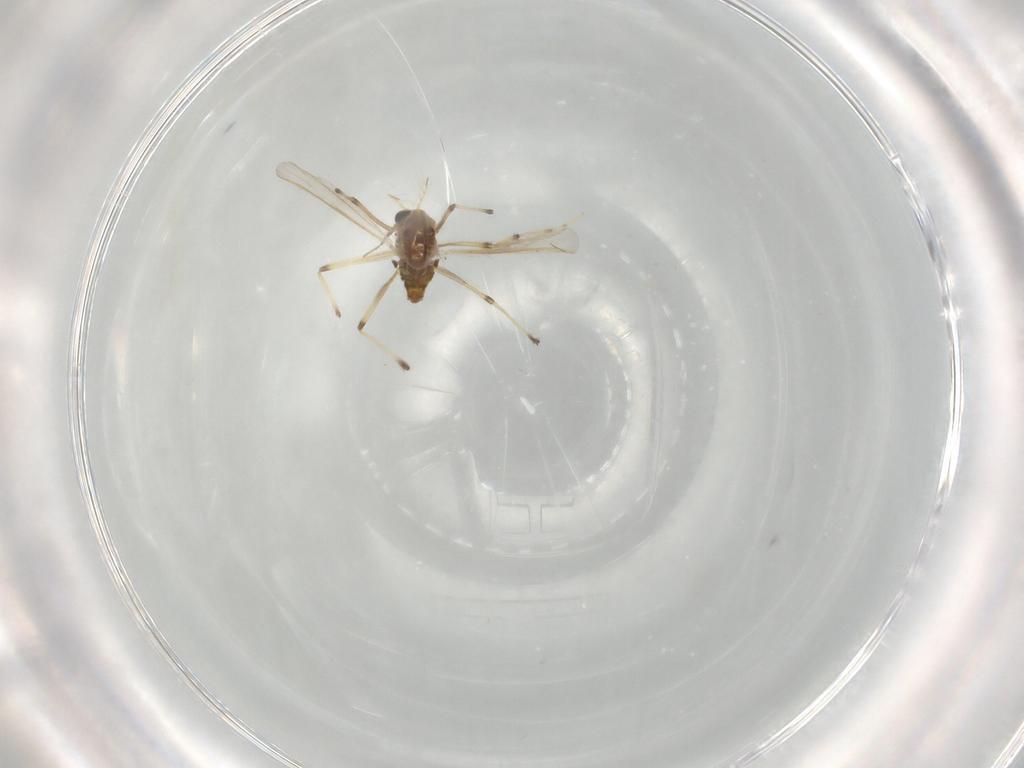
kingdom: Animalia
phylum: Arthropoda
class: Insecta
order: Diptera
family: Chironomidae
